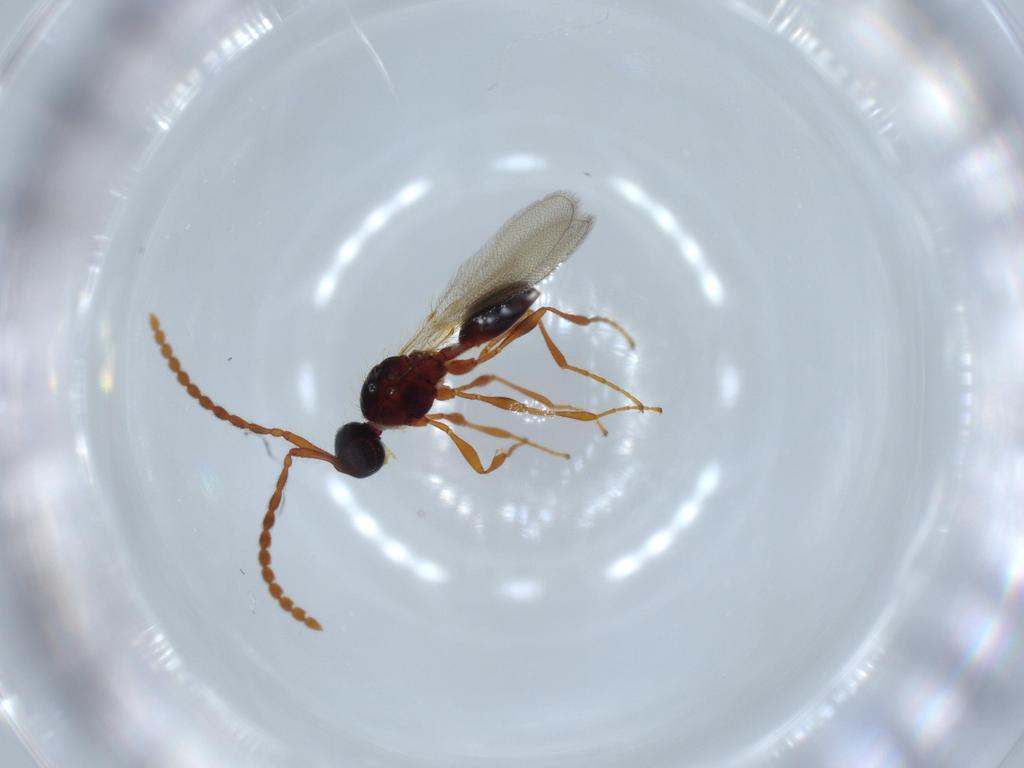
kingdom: Animalia
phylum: Arthropoda
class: Insecta
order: Hymenoptera
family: Diapriidae
